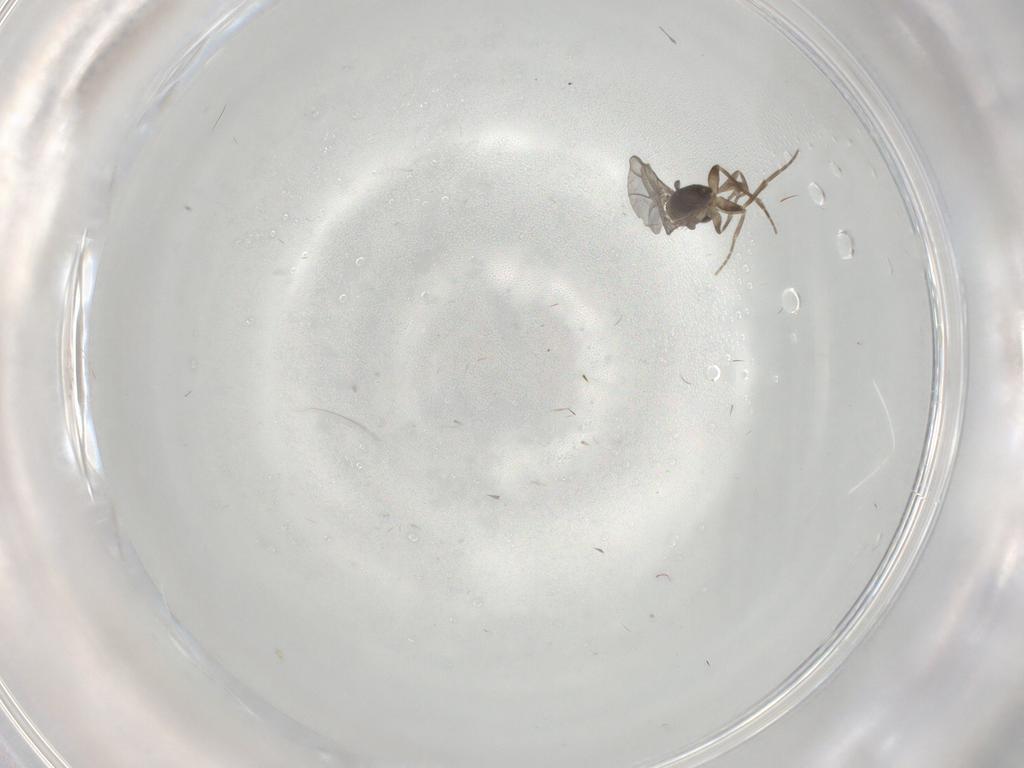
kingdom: Animalia
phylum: Arthropoda
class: Insecta
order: Diptera
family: Phoridae
